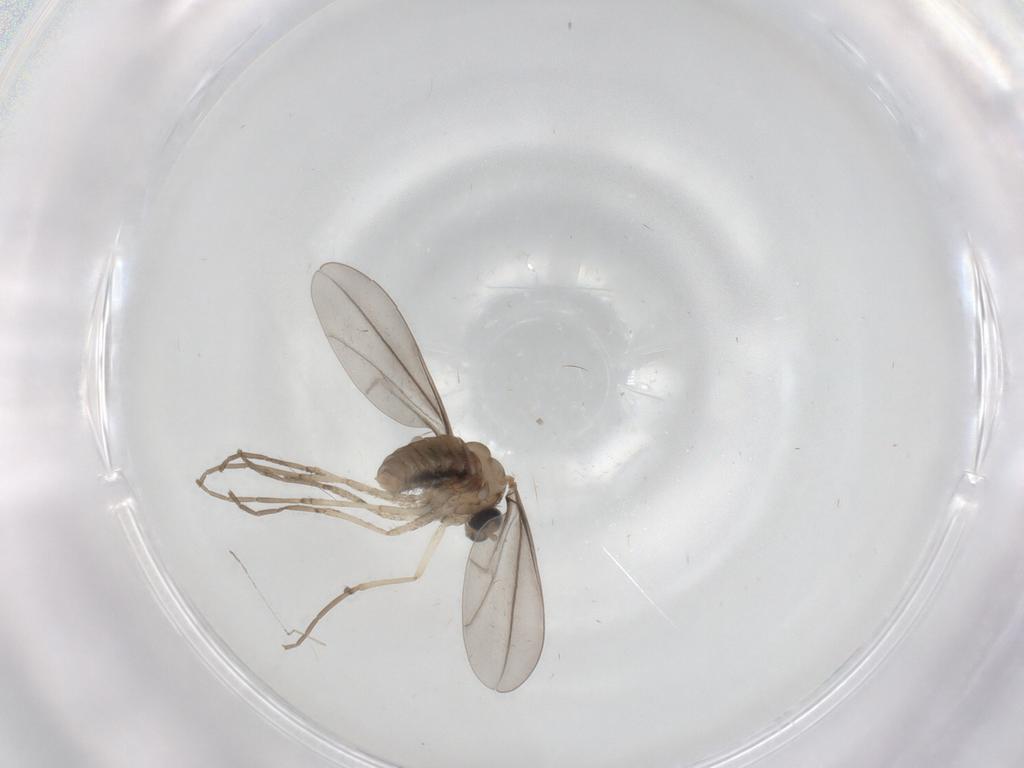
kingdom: Animalia
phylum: Arthropoda
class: Insecta
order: Diptera
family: Cecidomyiidae
